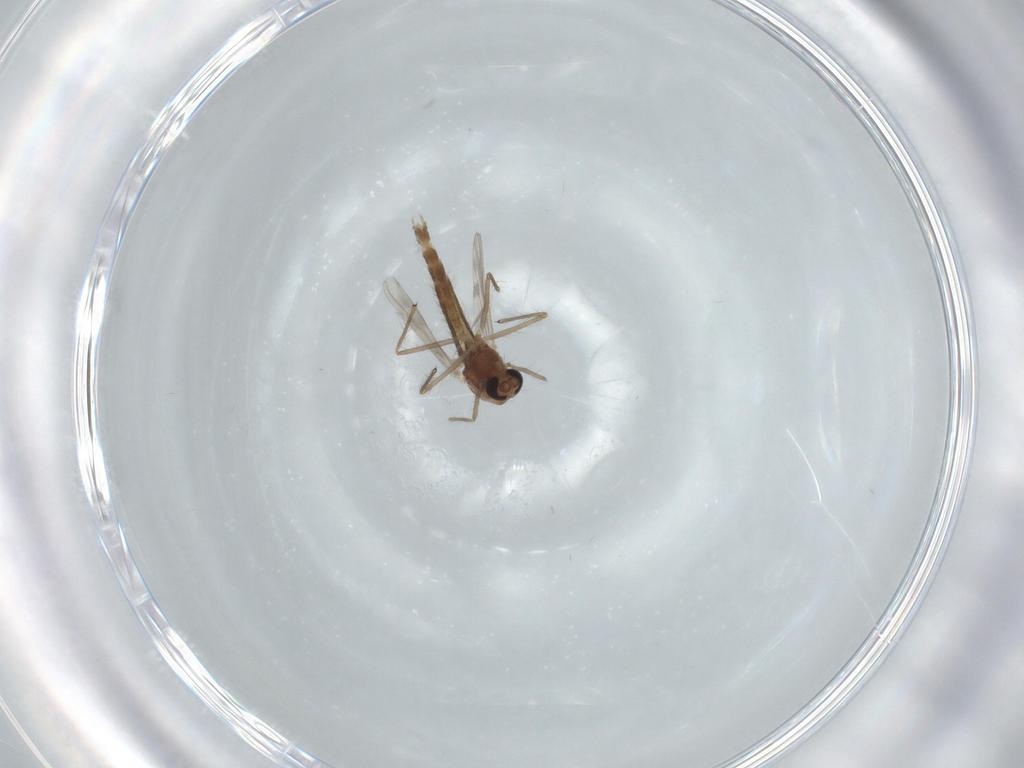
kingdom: Animalia
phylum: Arthropoda
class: Insecta
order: Diptera
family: Chironomidae
